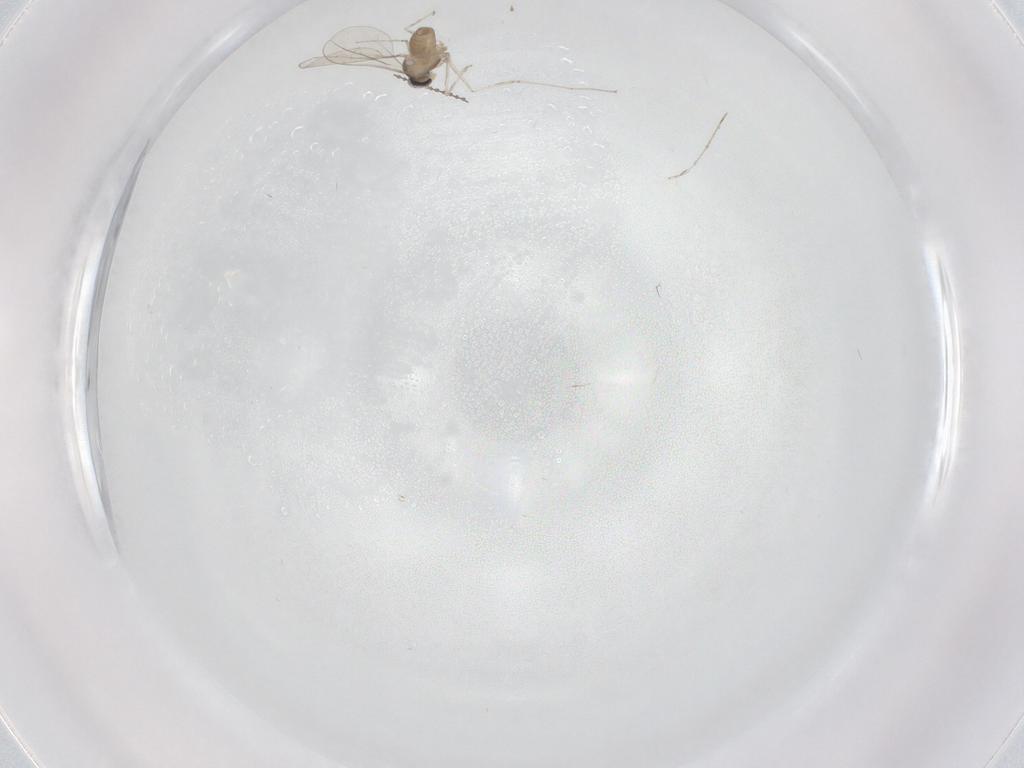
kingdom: Animalia
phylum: Arthropoda
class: Insecta
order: Diptera
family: Cecidomyiidae
